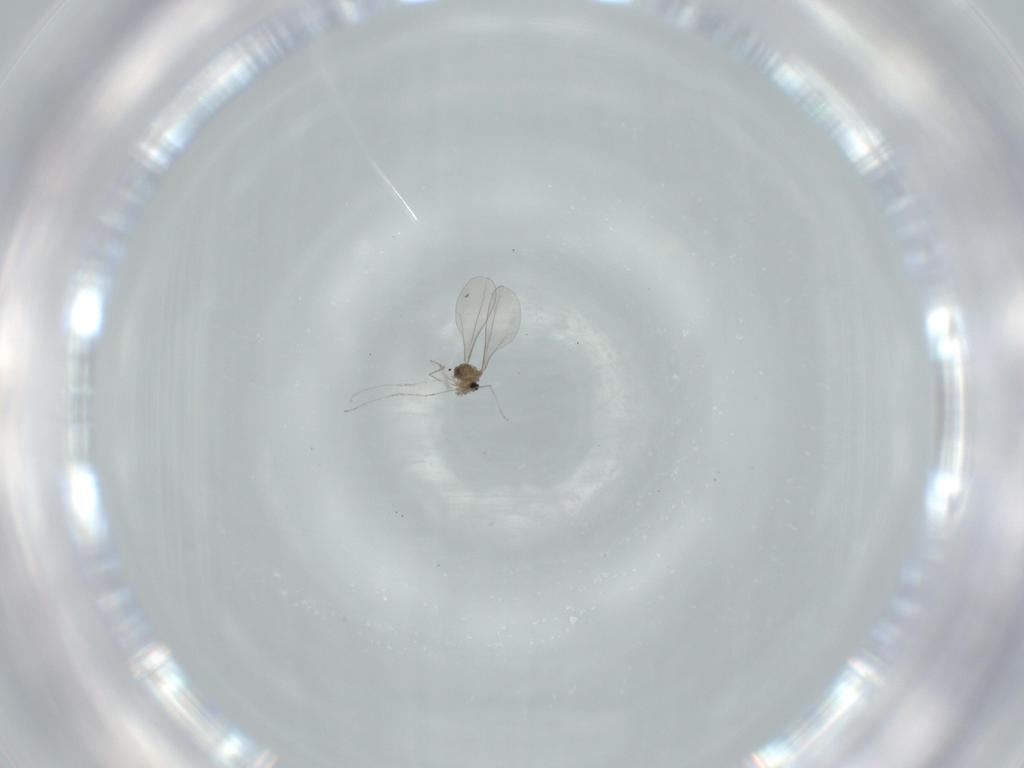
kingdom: Animalia
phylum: Arthropoda
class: Insecta
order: Diptera
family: Cecidomyiidae
